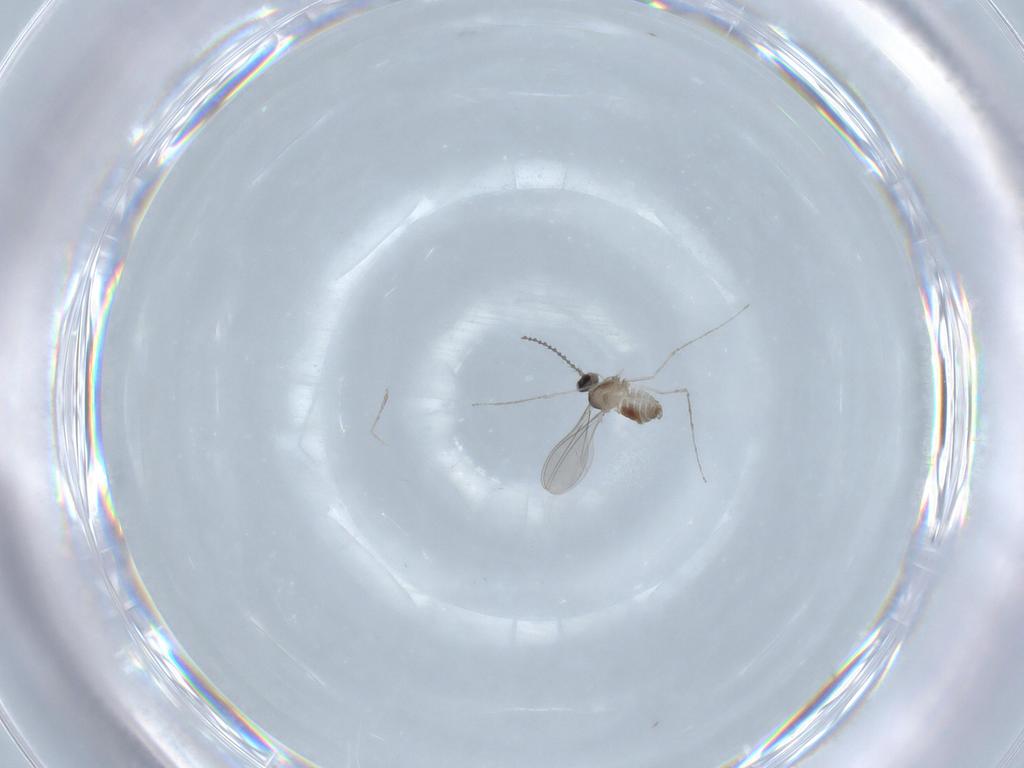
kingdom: Animalia
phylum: Arthropoda
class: Insecta
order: Diptera
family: Cecidomyiidae
